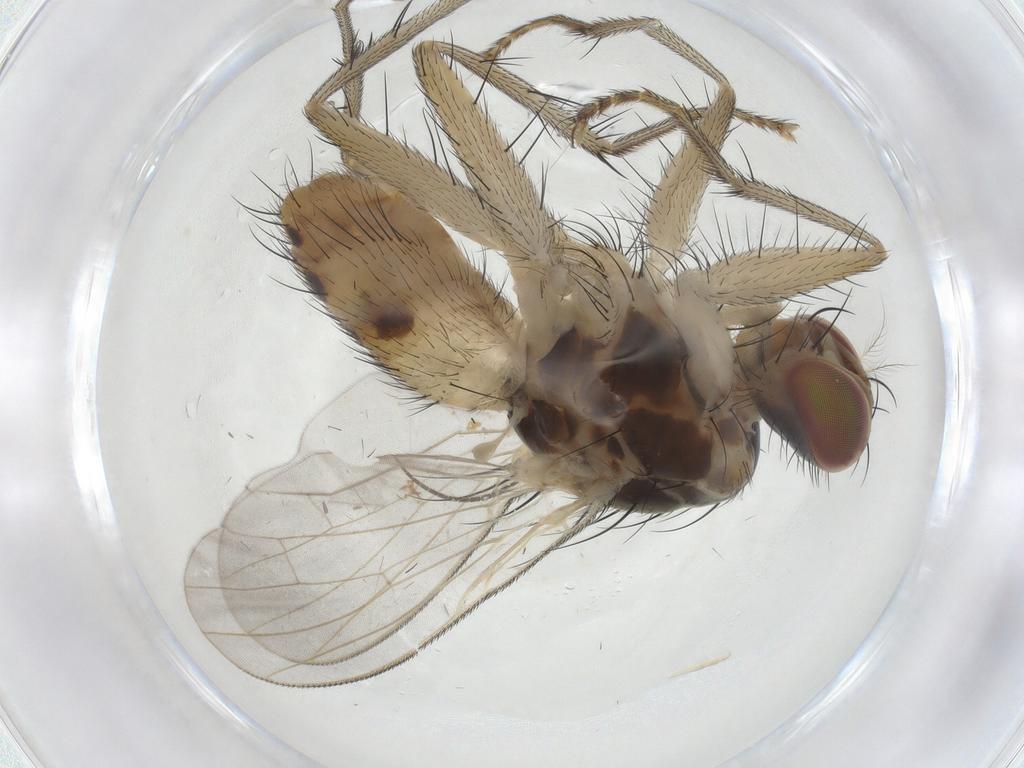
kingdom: Animalia
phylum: Arthropoda
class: Insecta
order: Diptera
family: Muscidae
